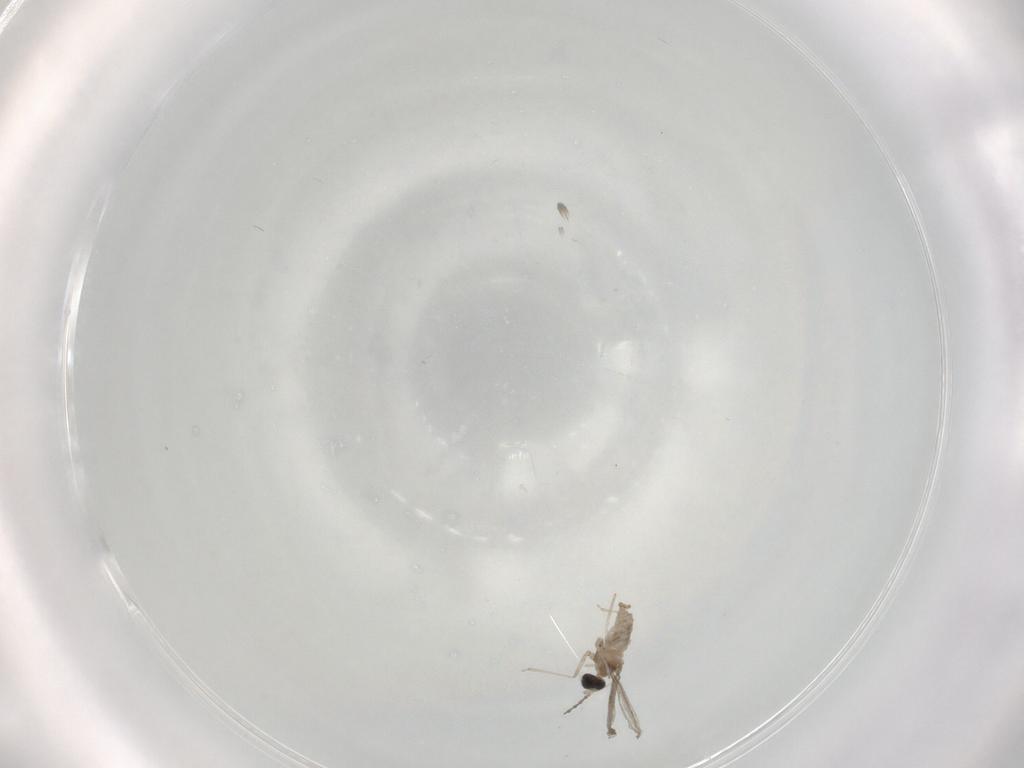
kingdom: Animalia
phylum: Arthropoda
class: Insecta
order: Diptera
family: Cecidomyiidae
